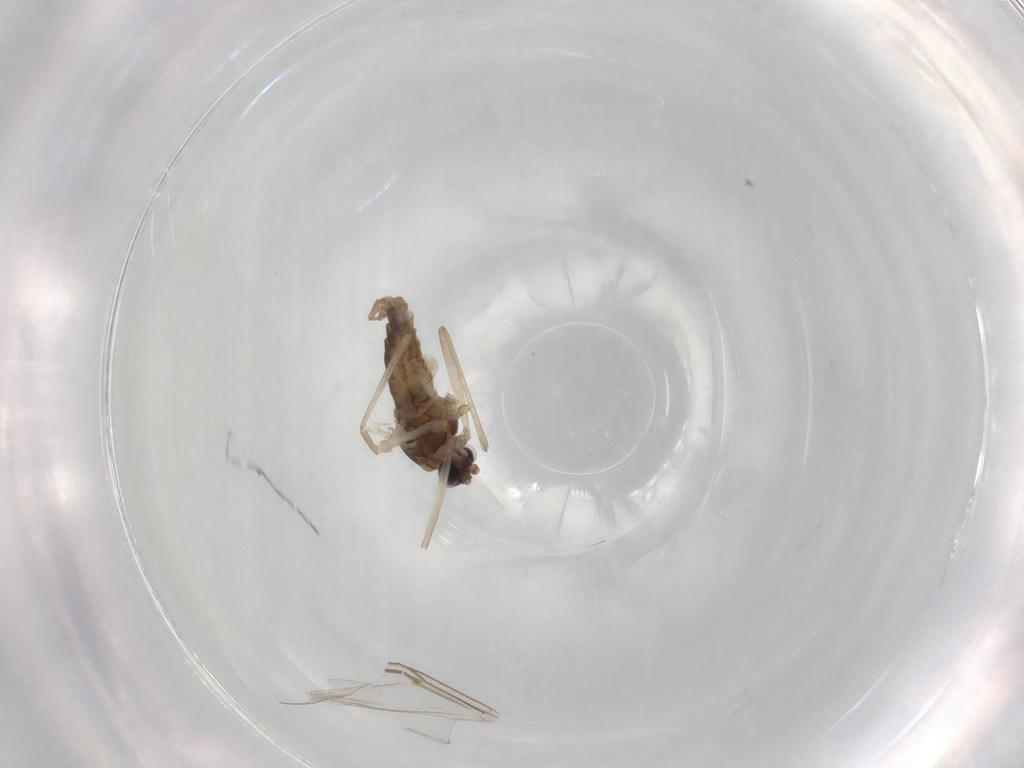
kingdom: Animalia
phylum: Arthropoda
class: Insecta
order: Diptera
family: Cecidomyiidae
